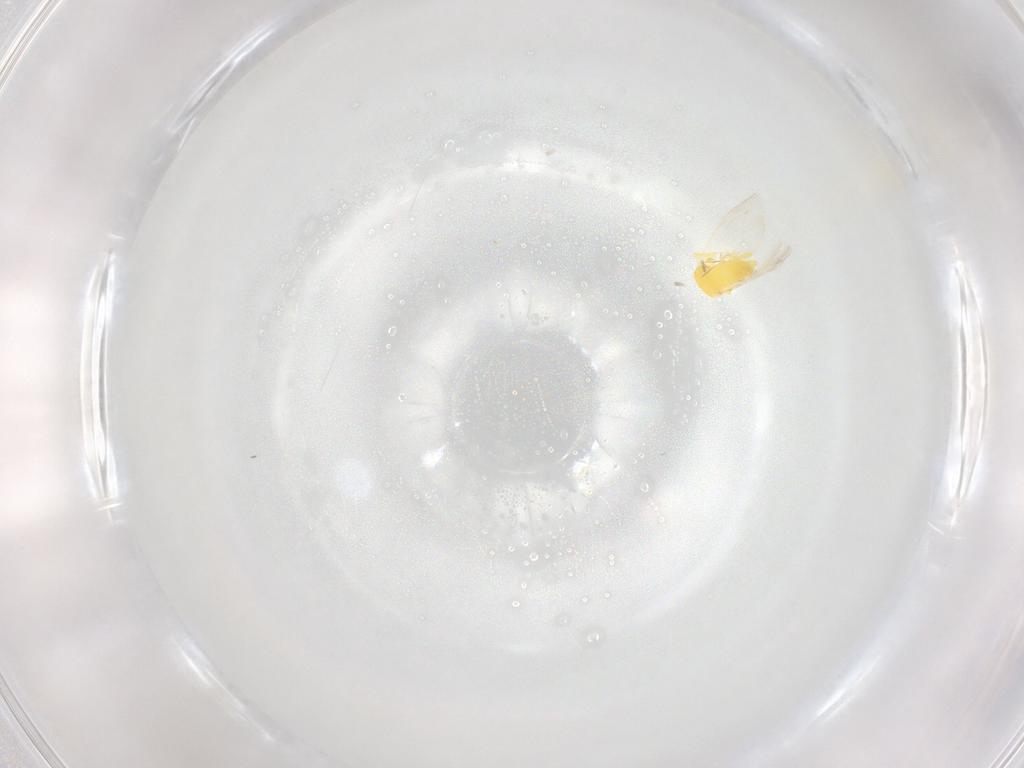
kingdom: Animalia
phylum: Arthropoda
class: Insecta
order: Hemiptera
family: Aleyrodidae
